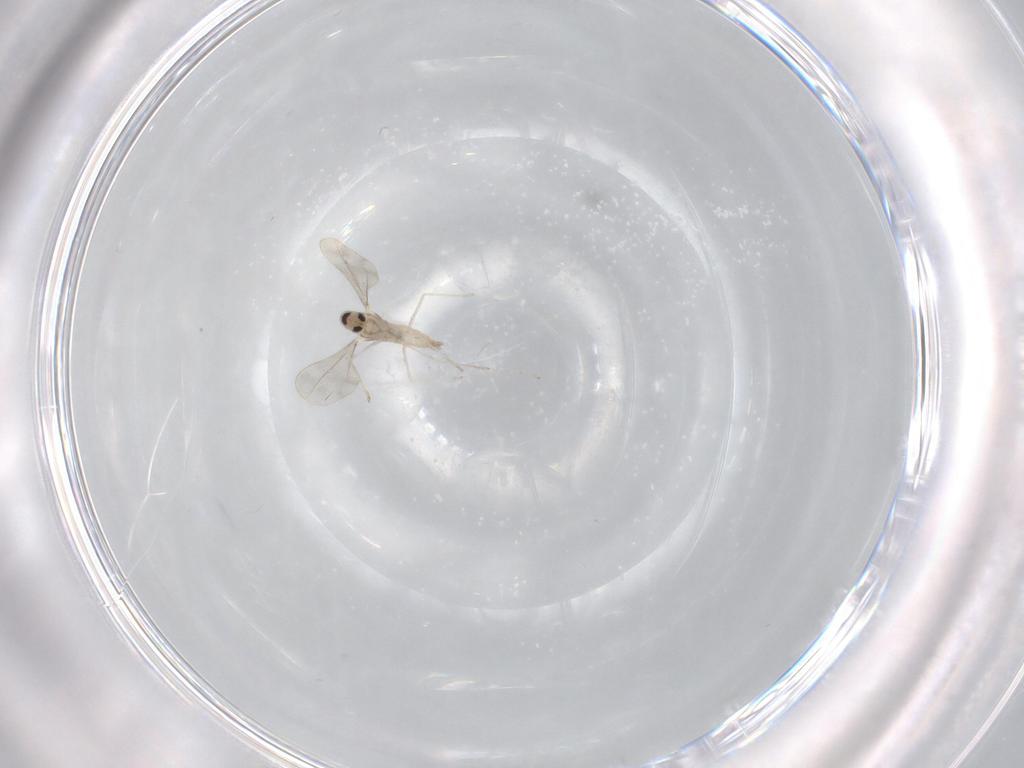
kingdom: Animalia
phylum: Arthropoda
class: Insecta
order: Diptera
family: Cecidomyiidae
